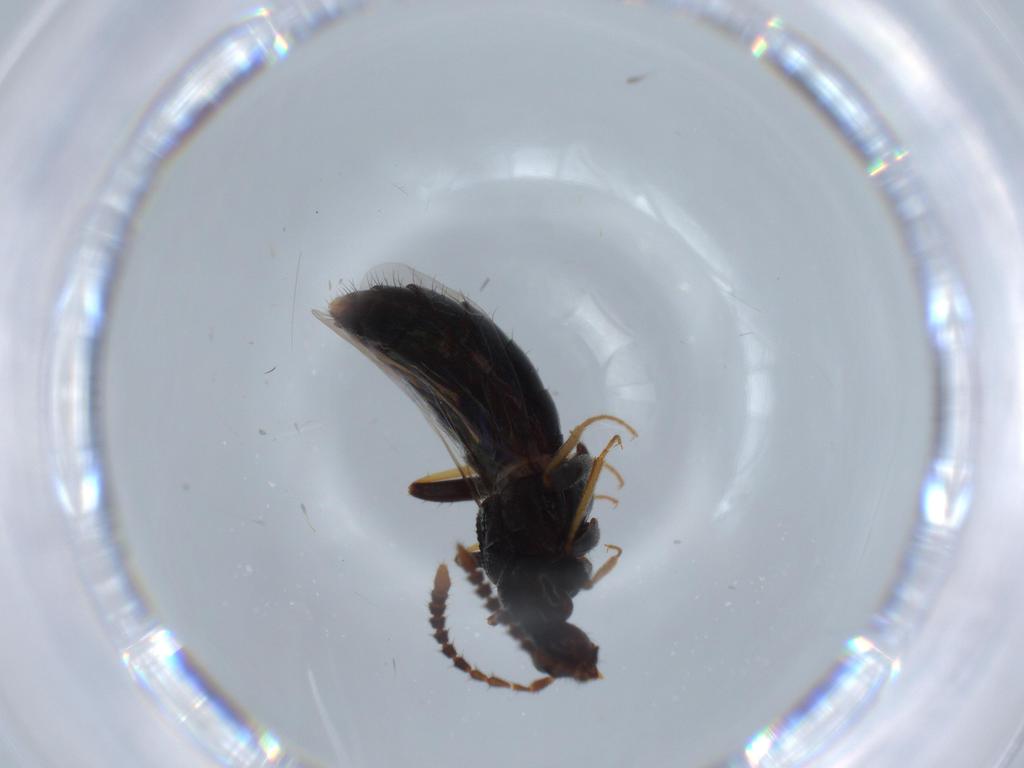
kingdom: Animalia
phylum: Arthropoda
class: Insecta
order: Coleoptera
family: Staphylinidae
